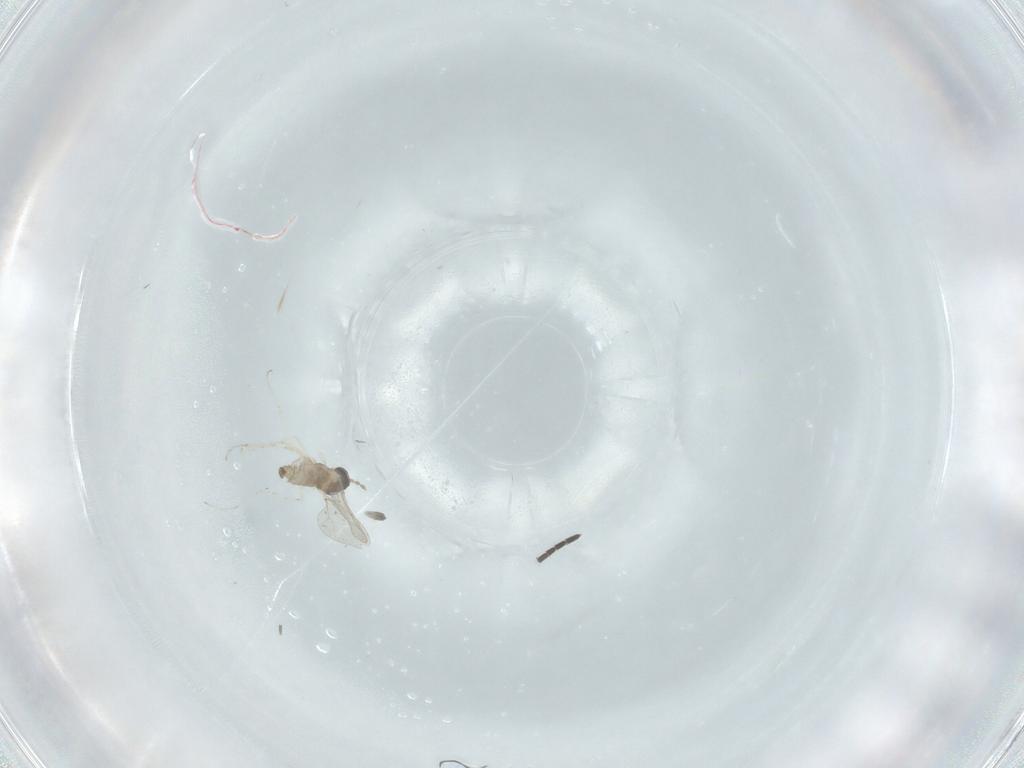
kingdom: Animalia
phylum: Arthropoda
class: Insecta
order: Diptera
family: Cecidomyiidae
